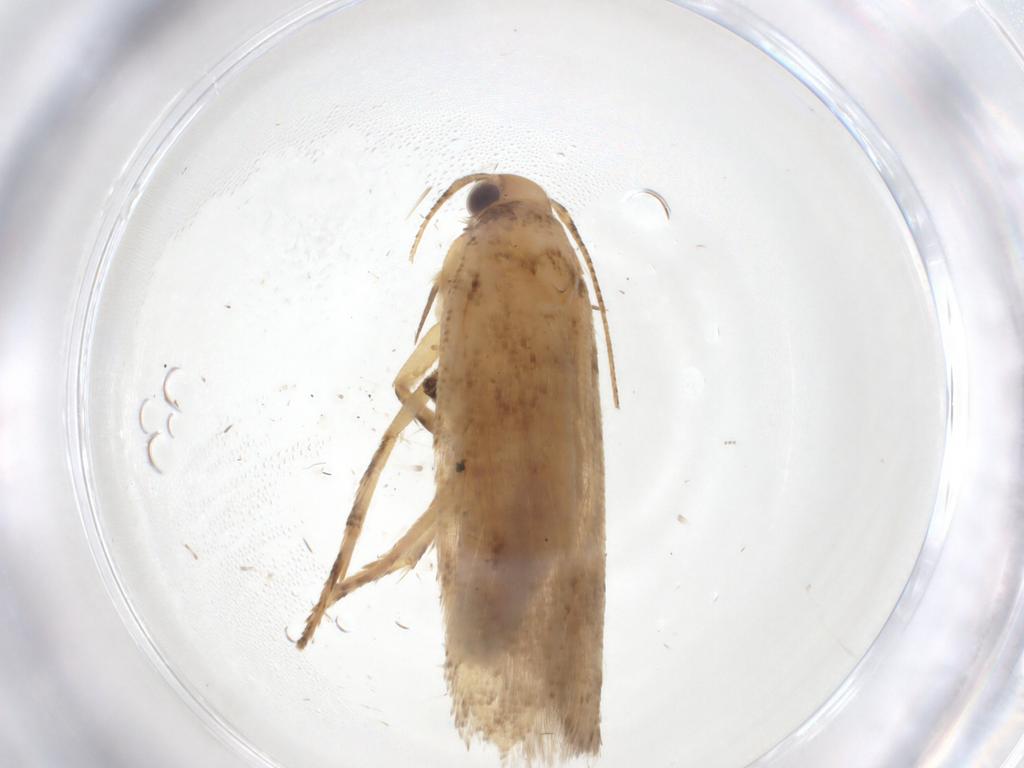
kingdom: Animalia
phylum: Arthropoda
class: Insecta
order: Lepidoptera
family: Gelechiidae
